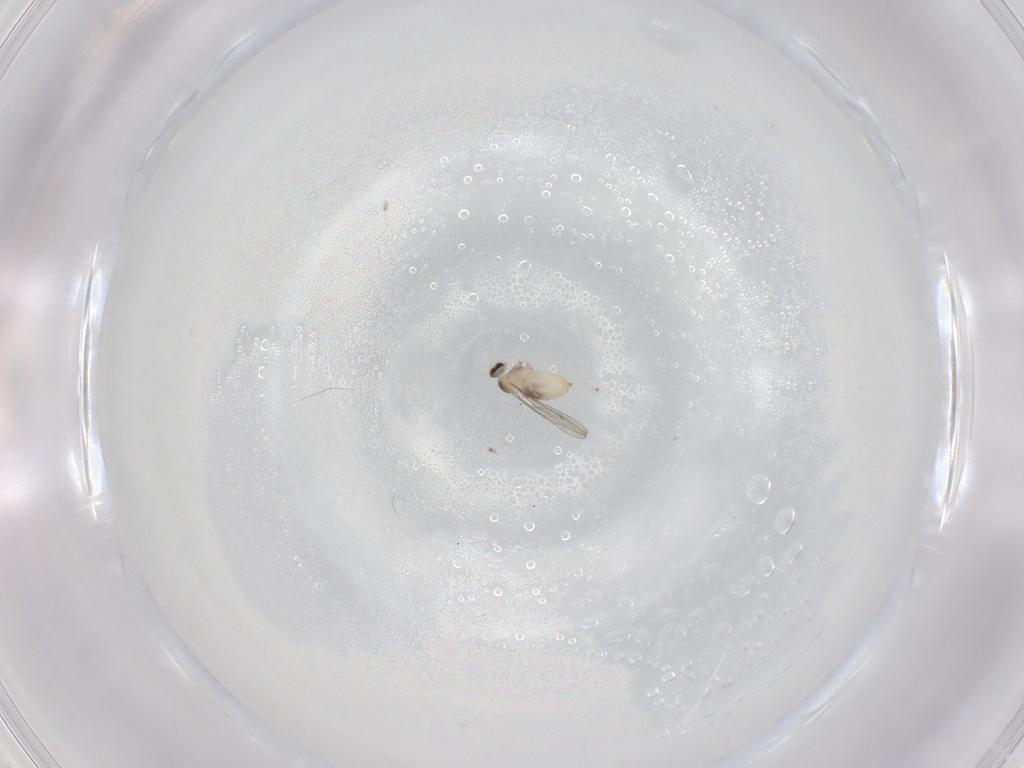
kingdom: Animalia
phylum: Arthropoda
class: Insecta
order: Diptera
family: Cecidomyiidae
